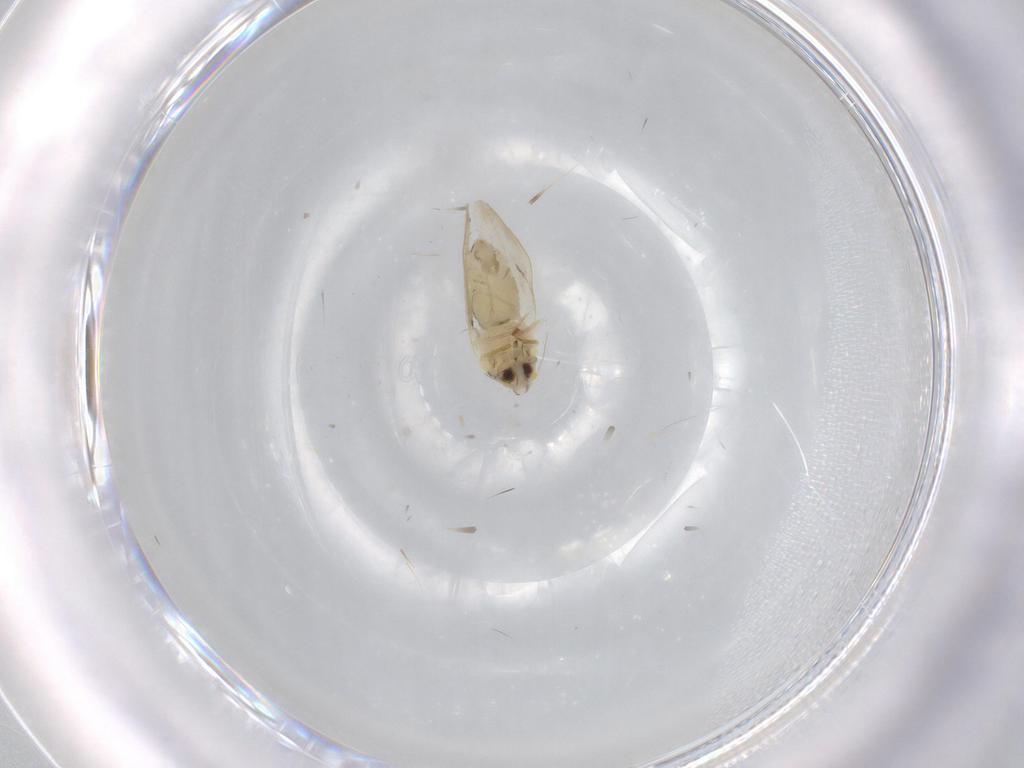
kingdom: Animalia
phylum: Arthropoda
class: Insecta
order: Hemiptera
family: Aleyrodidae
